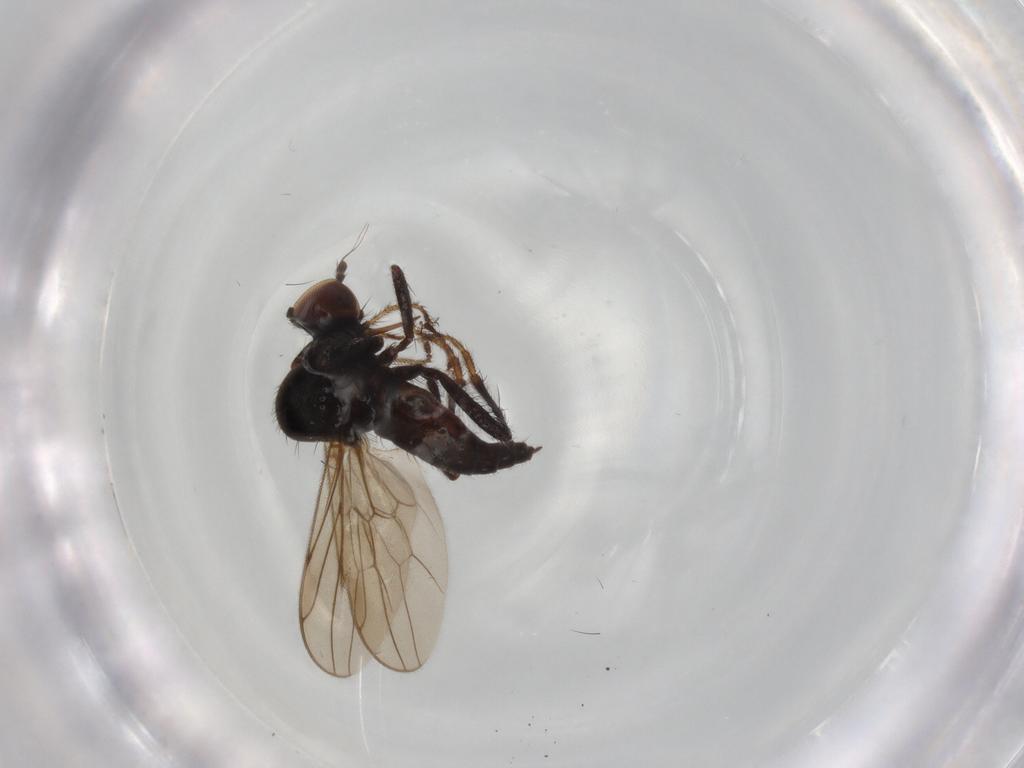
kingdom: Animalia
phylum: Arthropoda
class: Insecta
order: Diptera
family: Hybotidae
